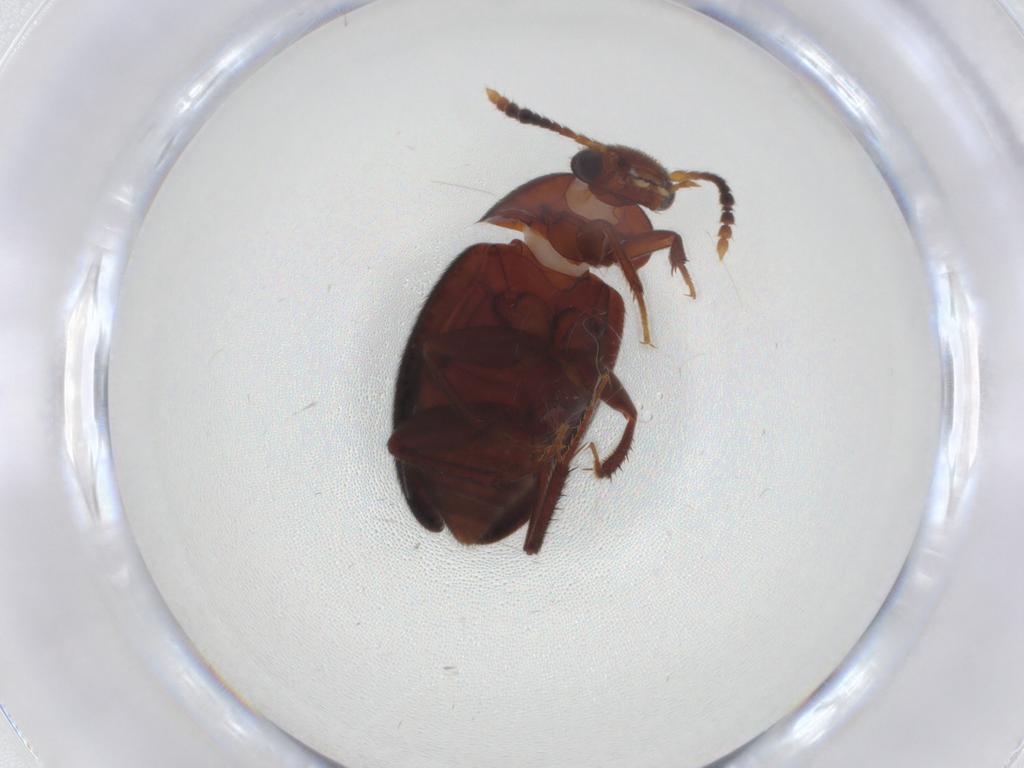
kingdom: Animalia
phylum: Arthropoda
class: Insecta
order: Coleoptera
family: Leiodidae
